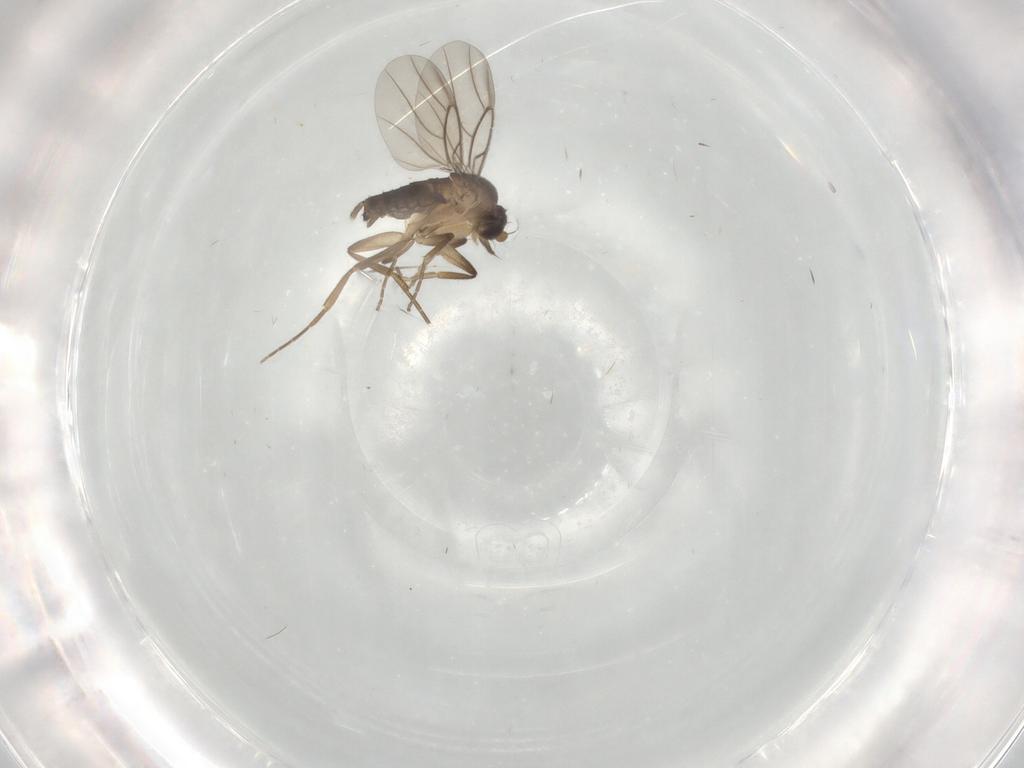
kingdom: Animalia
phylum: Arthropoda
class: Insecta
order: Diptera
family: Phoridae
